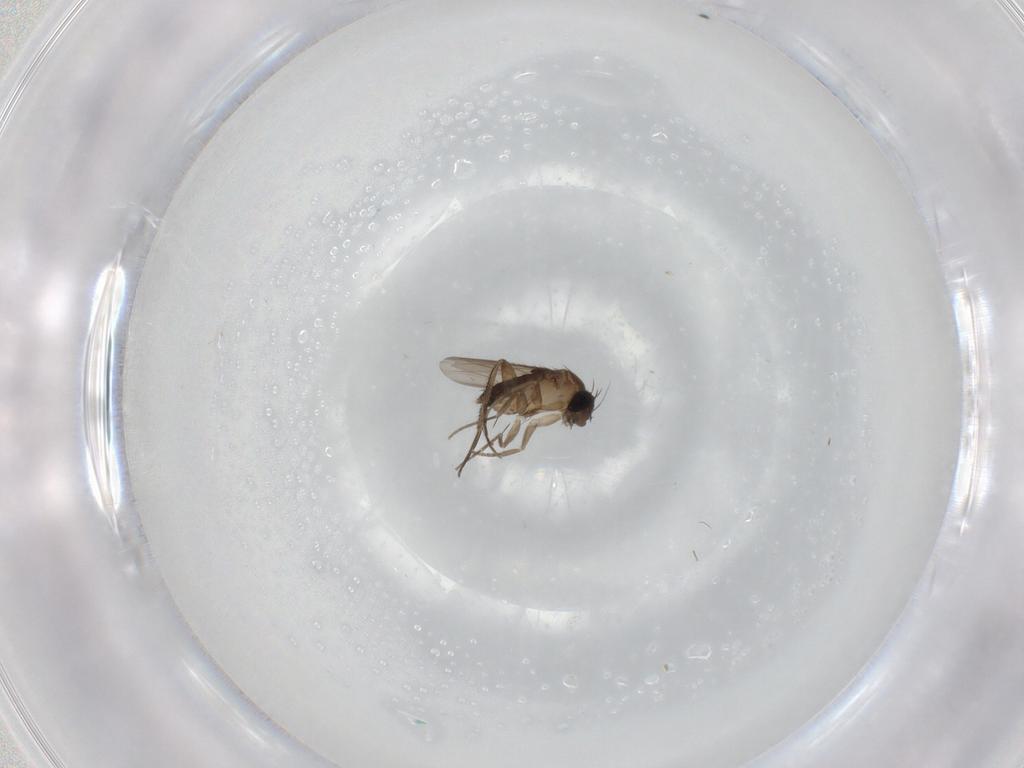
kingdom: Animalia
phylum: Arthropoda
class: Insecta
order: Diptera
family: Phoridae
